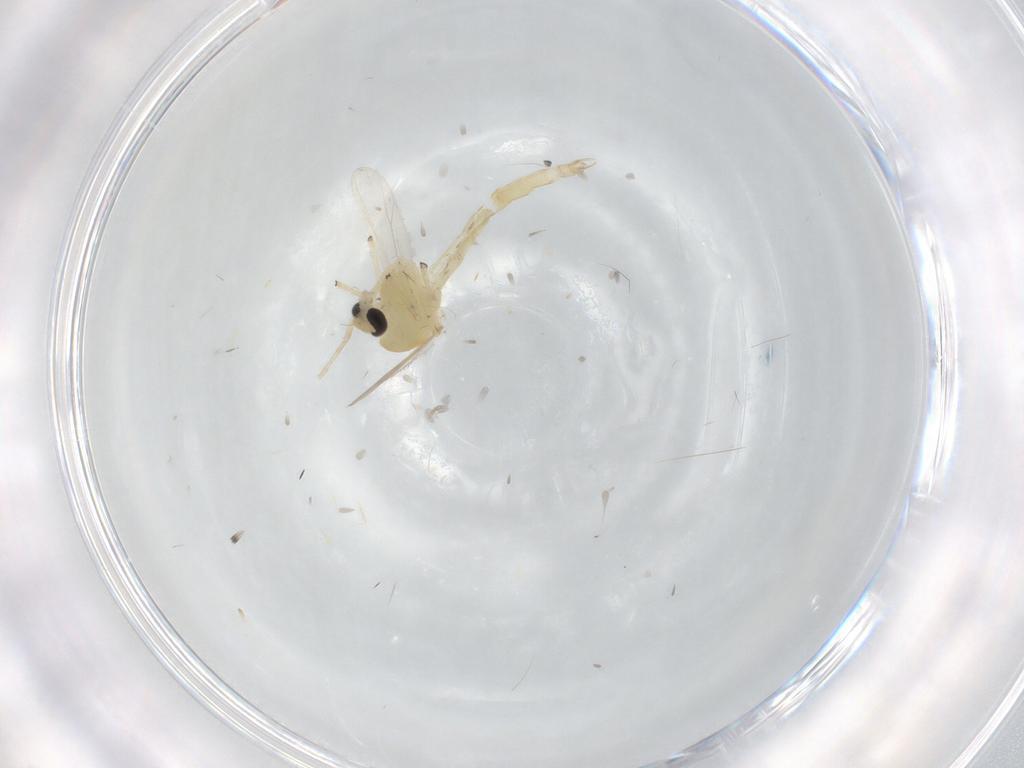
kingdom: Animalia
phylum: Arthropoda
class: Insecta
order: Diptera
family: Chironomidae
